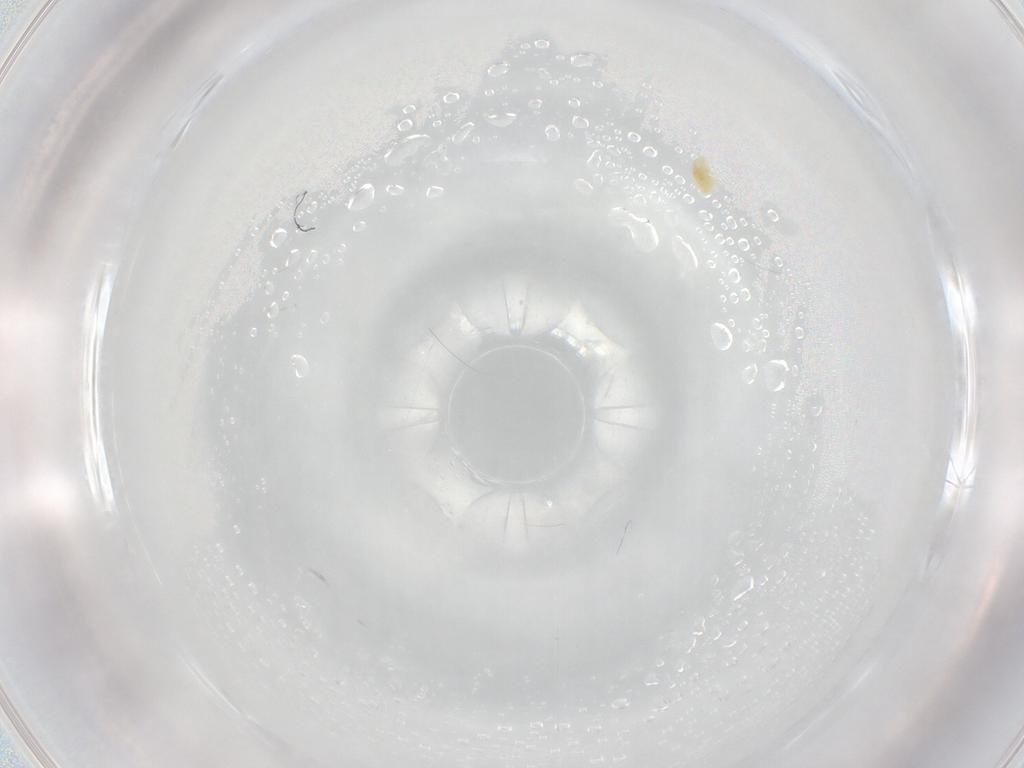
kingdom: Animalia
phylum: Arthropoda
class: Arachnida
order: Trombidiformes
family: Eupodidae
